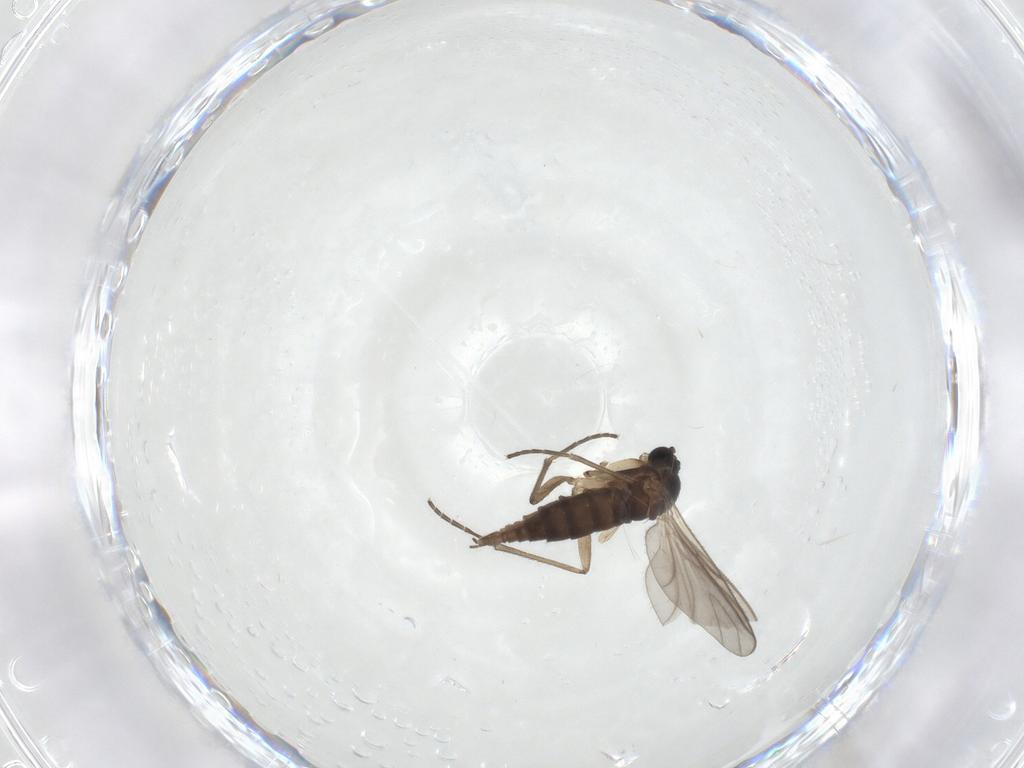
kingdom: Animalia
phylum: Arthropoda
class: Insecta
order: Diptera
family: Sciaridae
